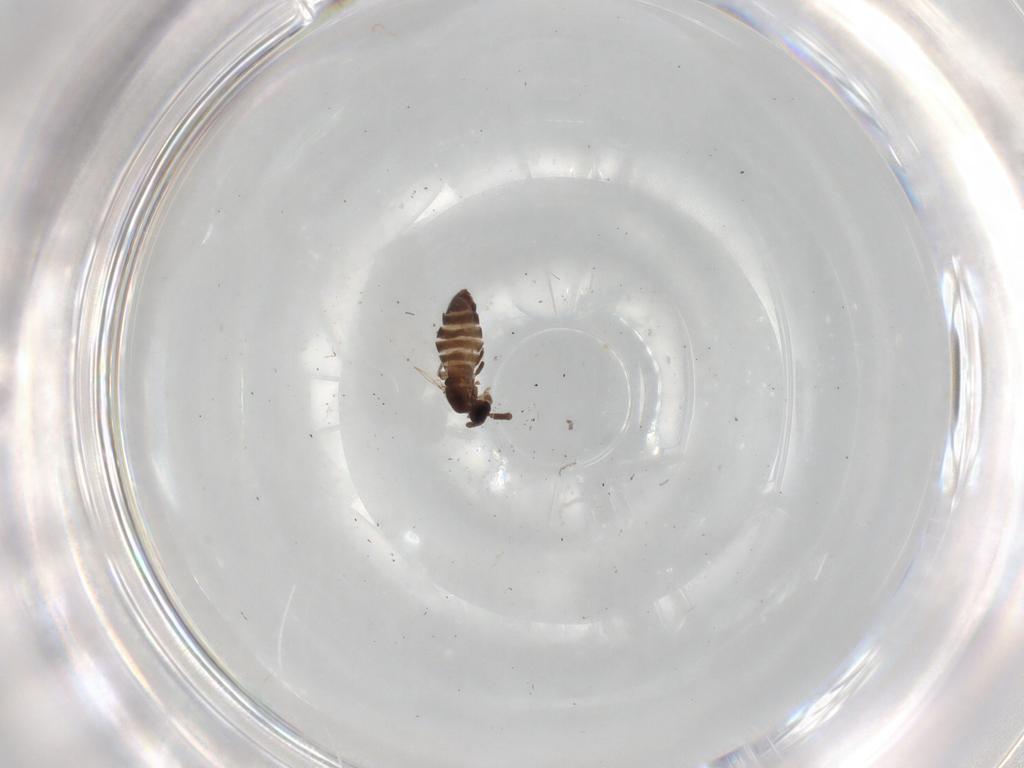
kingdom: Animalia
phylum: Arthropoda
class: Insecta
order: Diptera
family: Scatopsidae
